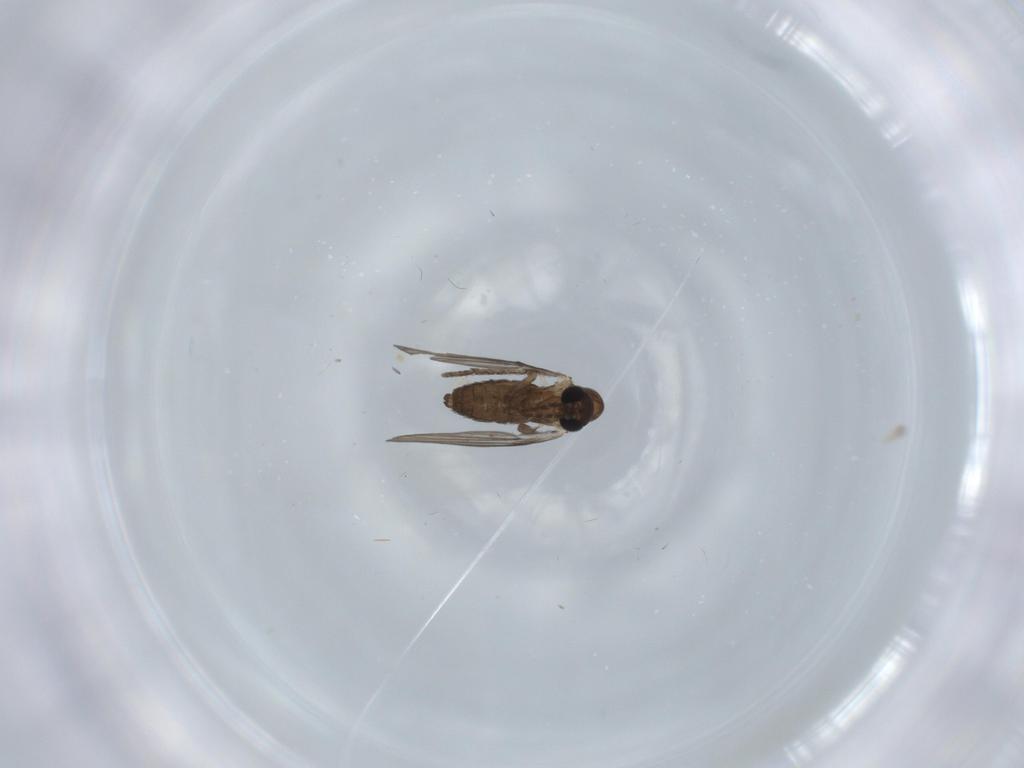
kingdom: Animalia
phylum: Arthropoda
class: Insecta
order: Diptera
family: Psychodidae
